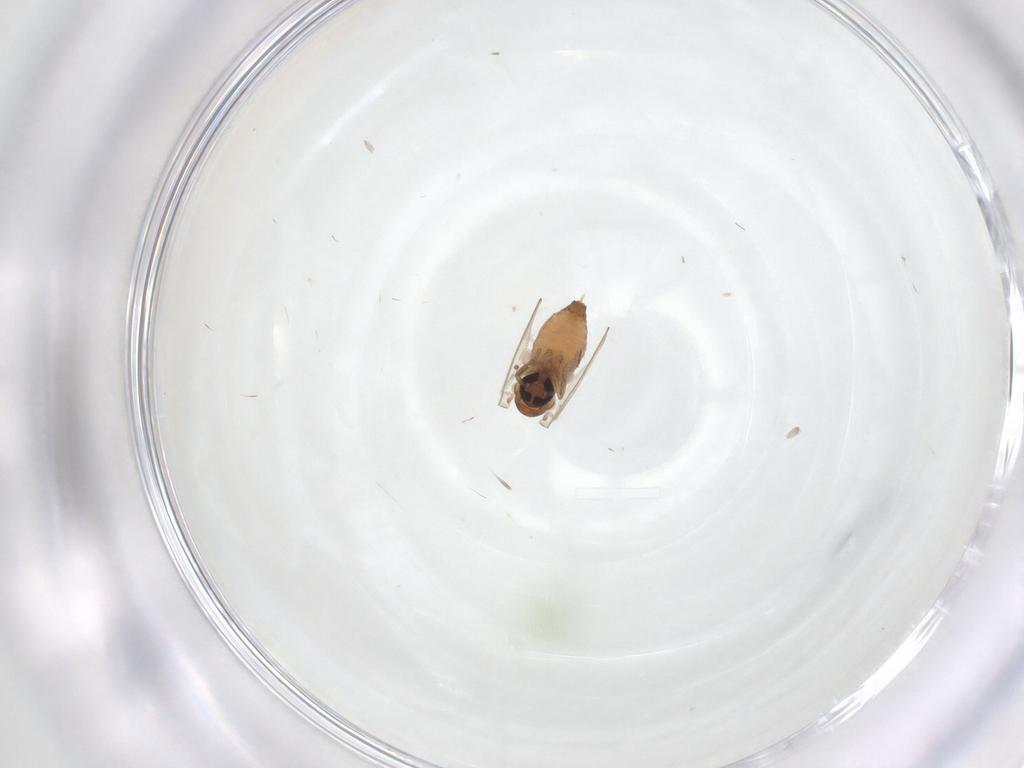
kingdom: Animalia
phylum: Arthropoda
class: Insecta
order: Diptera
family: Psychodidae
